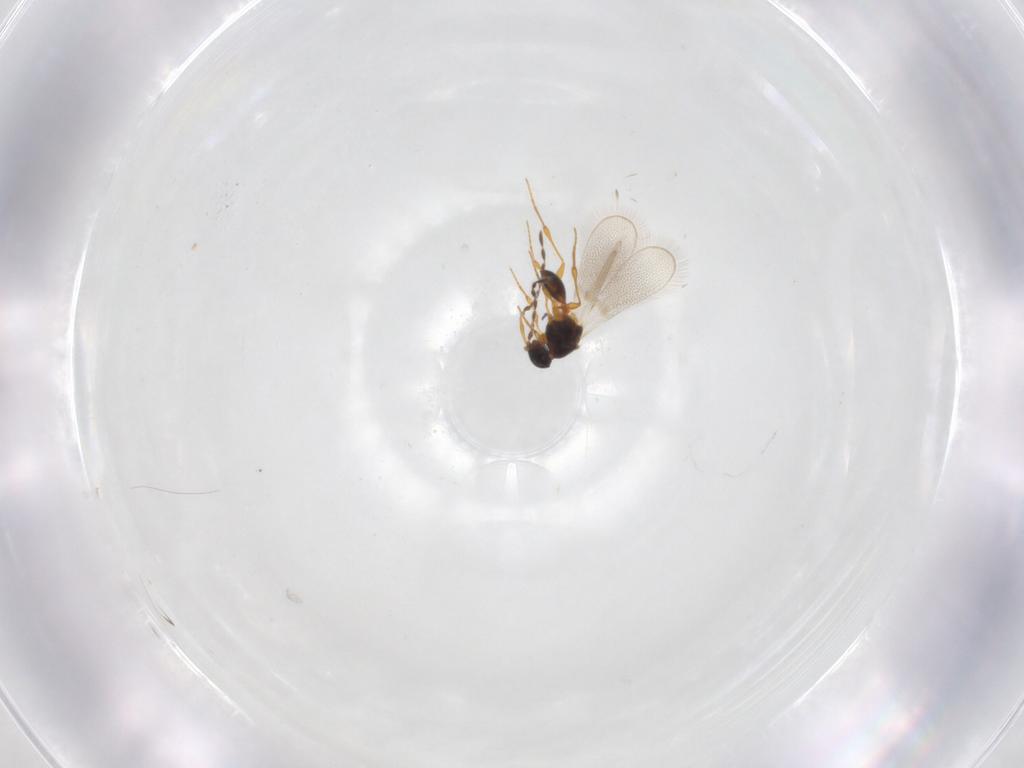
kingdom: Animalia
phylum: Arthropoda
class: Insecta
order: Hymenoptera
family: Platygastridae
